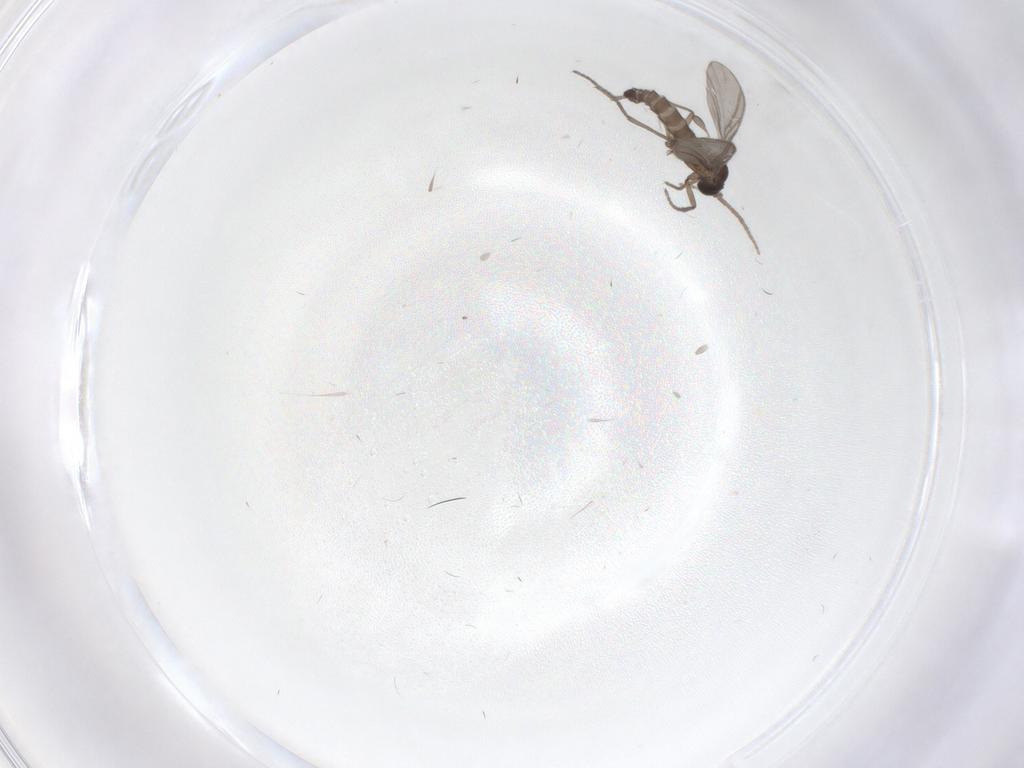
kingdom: Animalia
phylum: Arthropoda
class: Insecta
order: Diptera
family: Sciaridae
